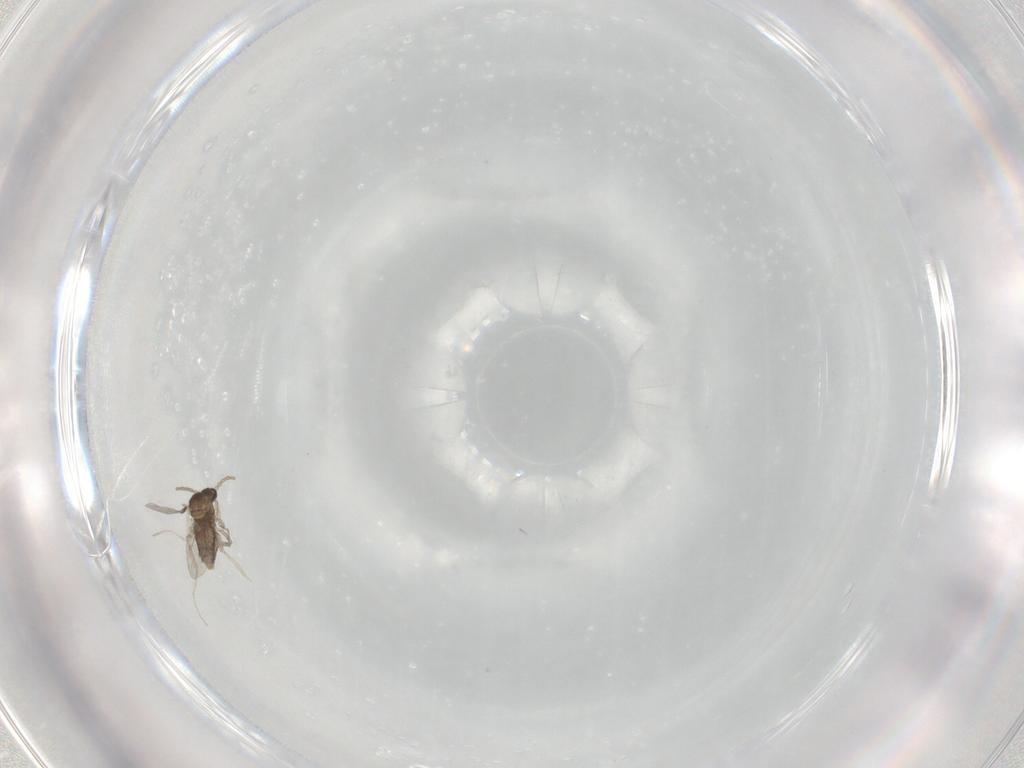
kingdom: Animalia
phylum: Arthropoda
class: Insecta
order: Diptera
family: Cecidomyiidae
